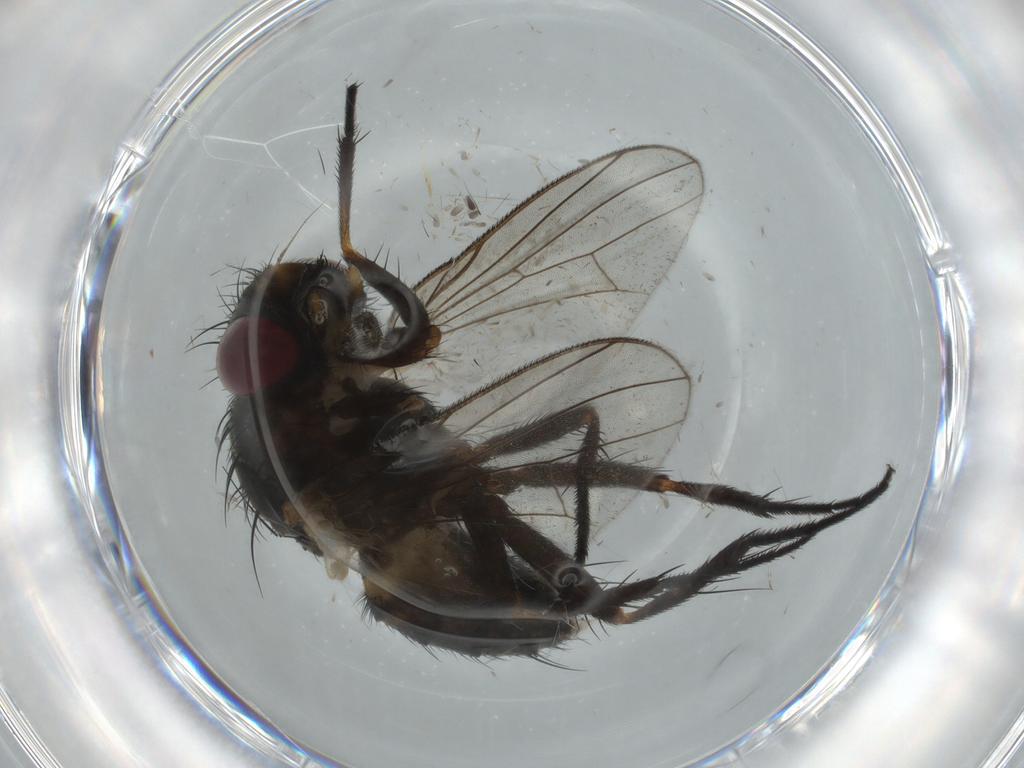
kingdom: Animalia
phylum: Arthropoda
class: Insecta
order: Diptera
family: Cecidomyiidae
